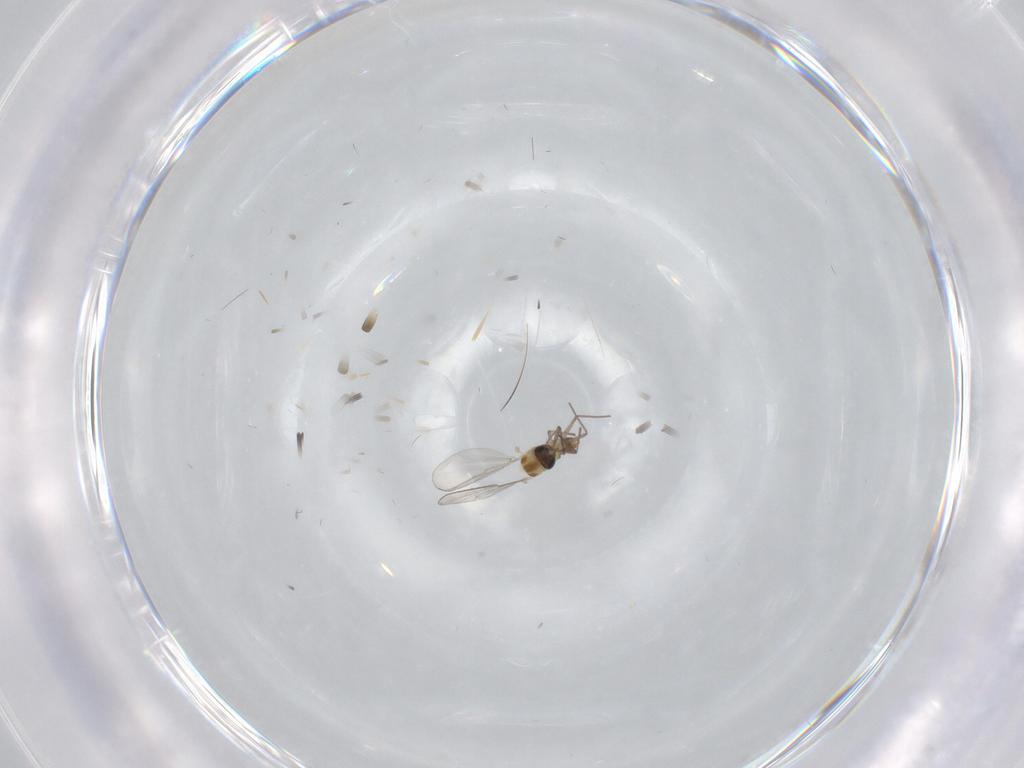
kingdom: Animalia
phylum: Arthropoda
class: Insecta
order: Diptera
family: Chironomidae
